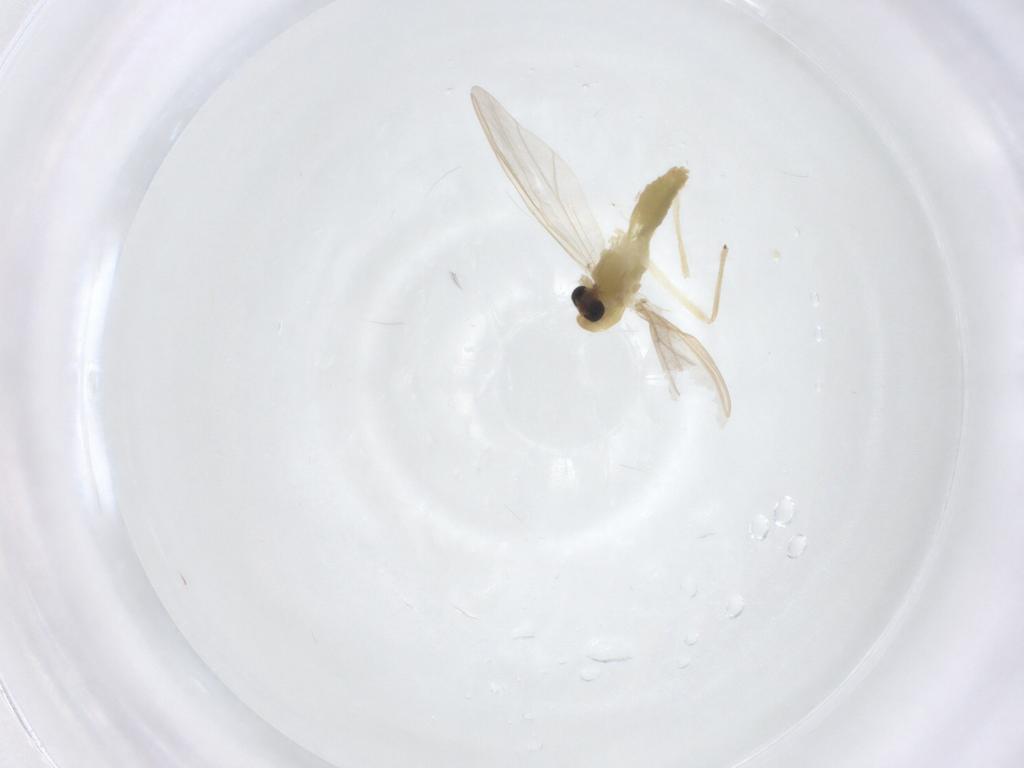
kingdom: Animalia
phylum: Arthropoda
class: Insecta
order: Diptera
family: Chironomidae
